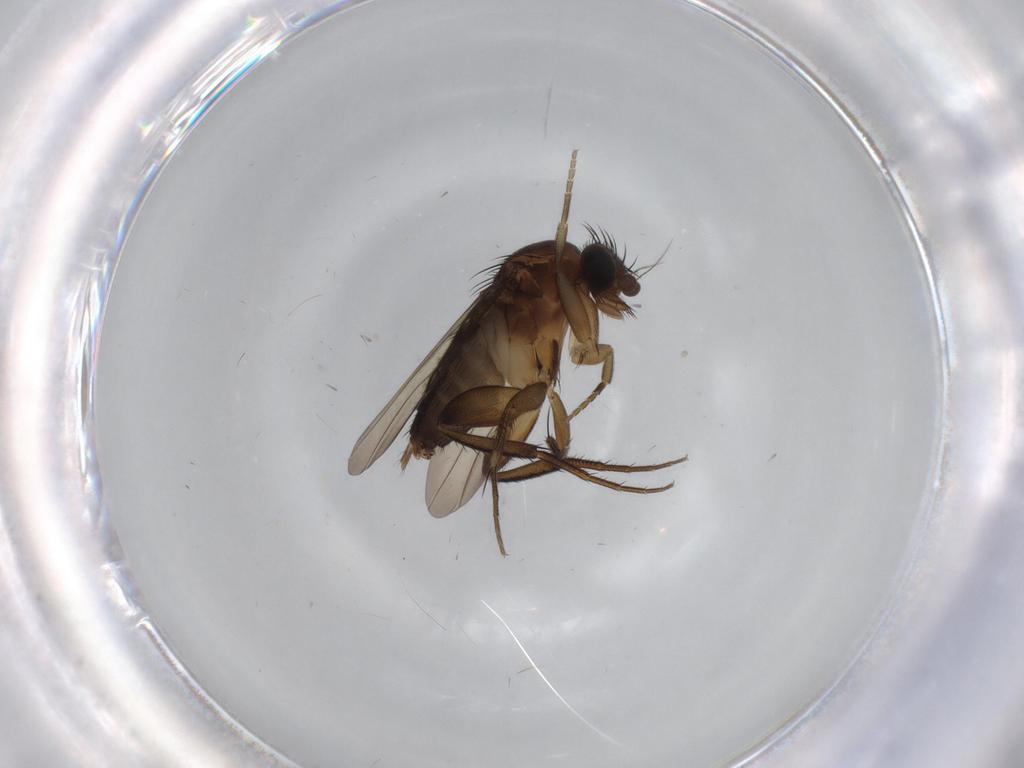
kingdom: Animalia
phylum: Arthropoda
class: Insecta
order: Diptera
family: Phoridae
